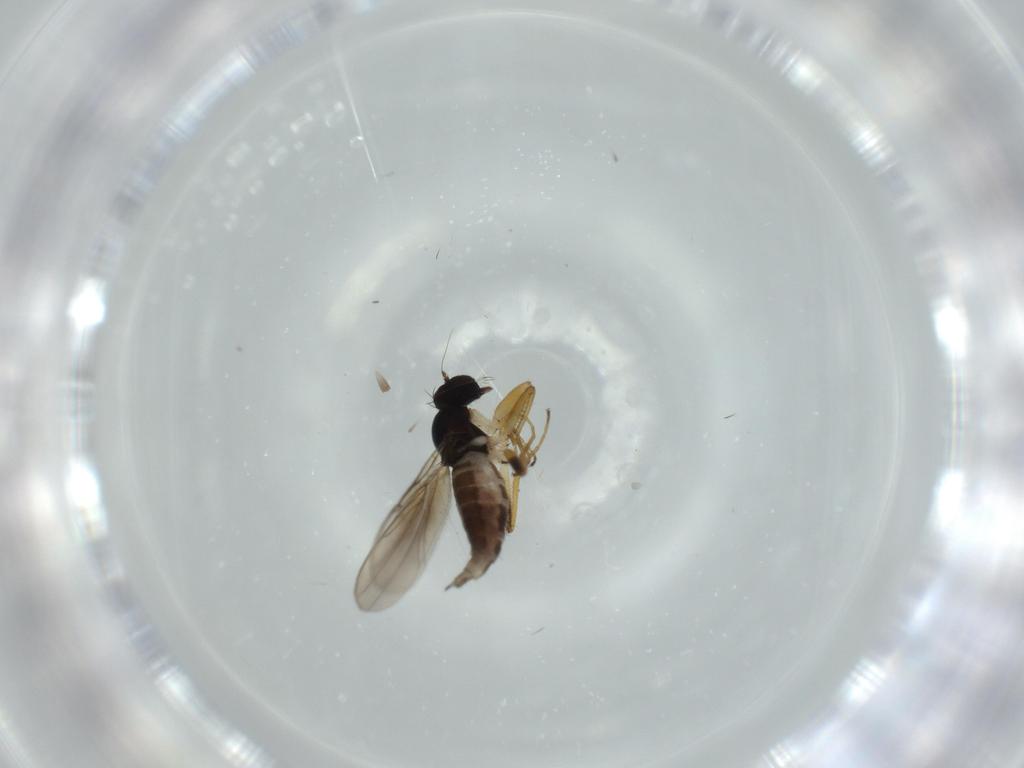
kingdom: Animalia
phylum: Arthropoda
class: Insecta
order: Diptera
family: Hybotidae
